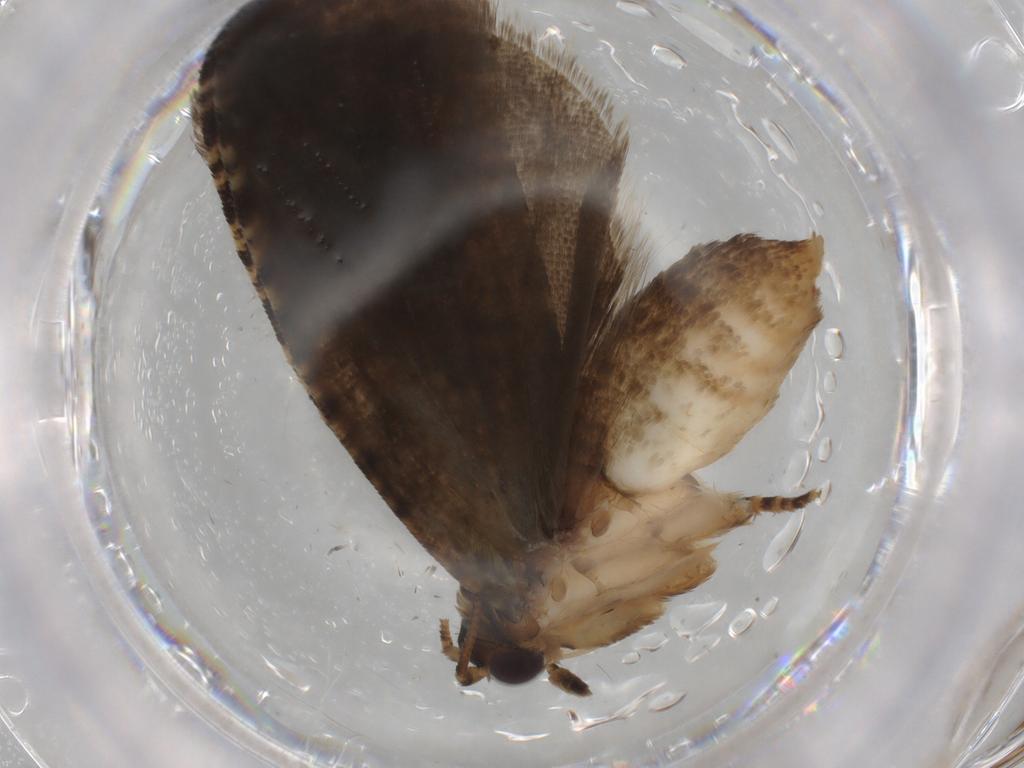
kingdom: Animalia
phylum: Arthropoda
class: Insecta
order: Lepidoptera
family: Tortricidae
